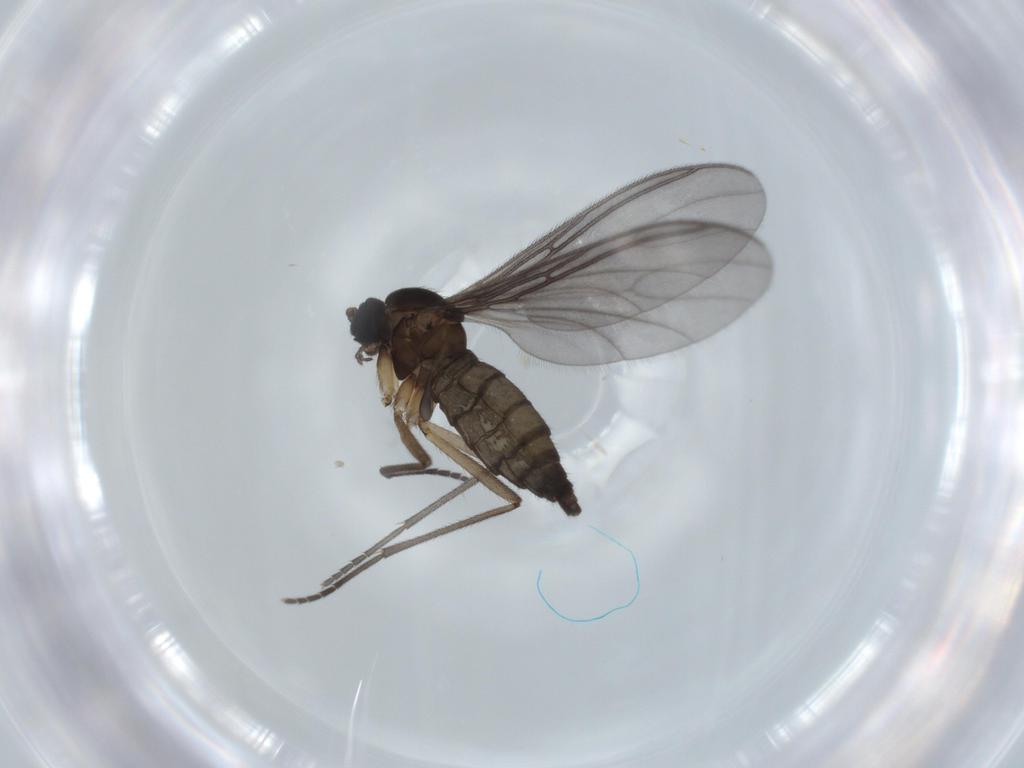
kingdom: Animalia
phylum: Arthropoda
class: Insecta
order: Diptera
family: Sciaridae
